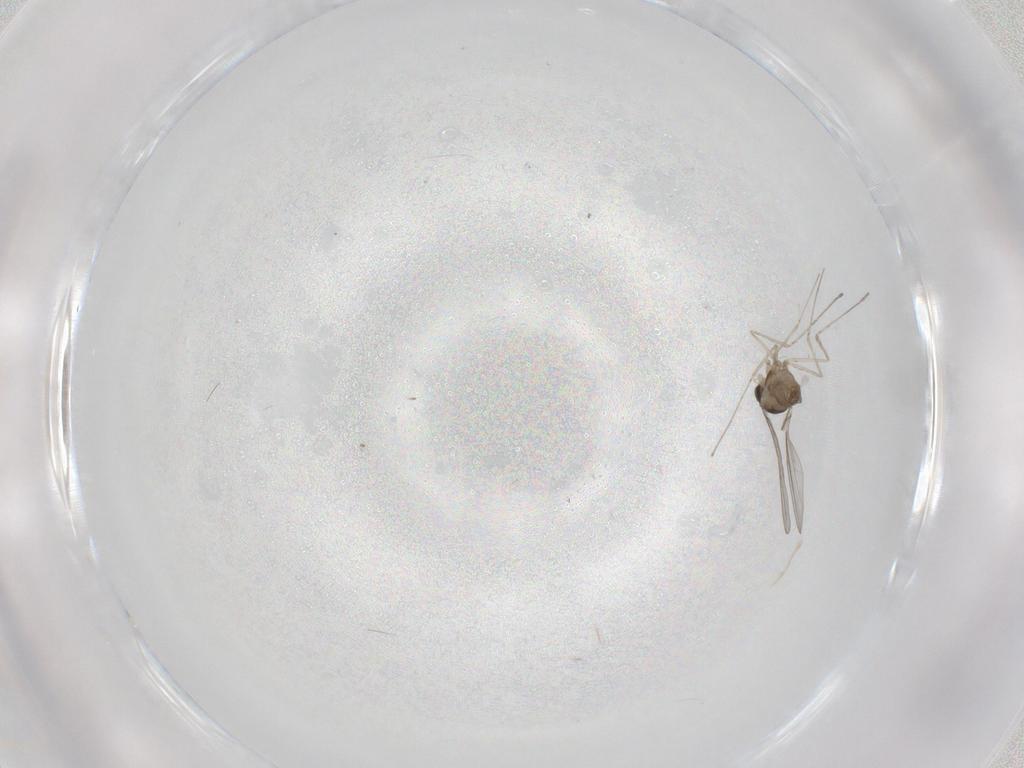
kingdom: Animalia
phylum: Arthropoda
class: Insecta
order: Diptera
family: Cecidomyiidae
